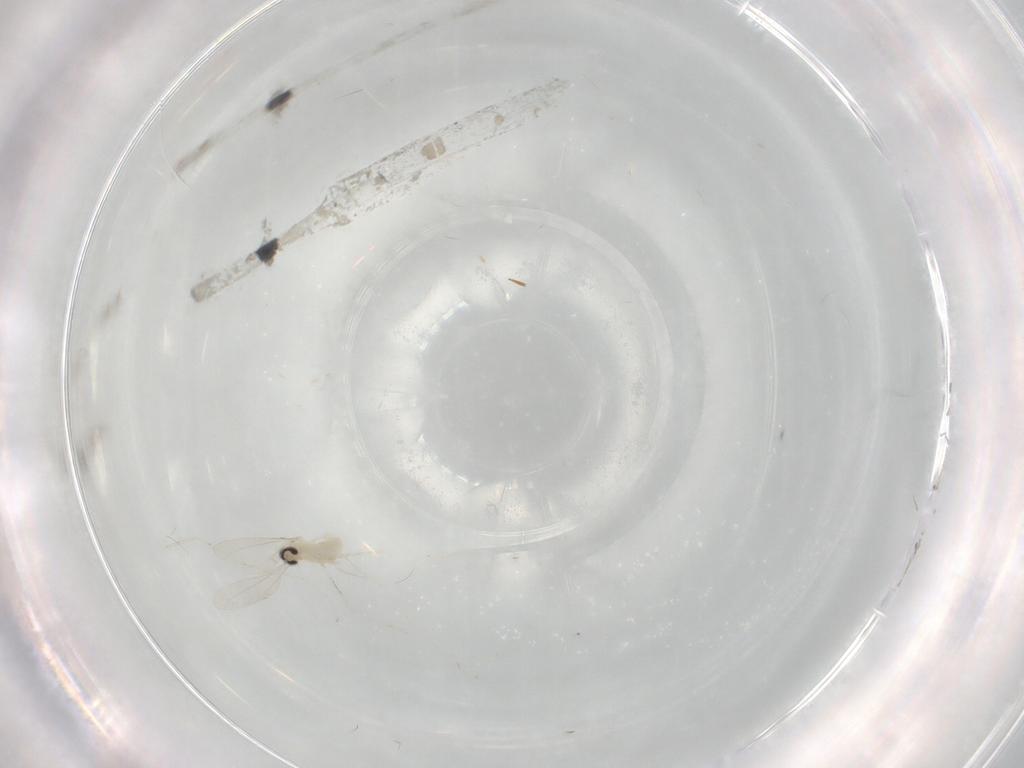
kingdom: Animalia
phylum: Arthropoda
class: Insecta
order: Diptera
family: Cecidomyiidae
